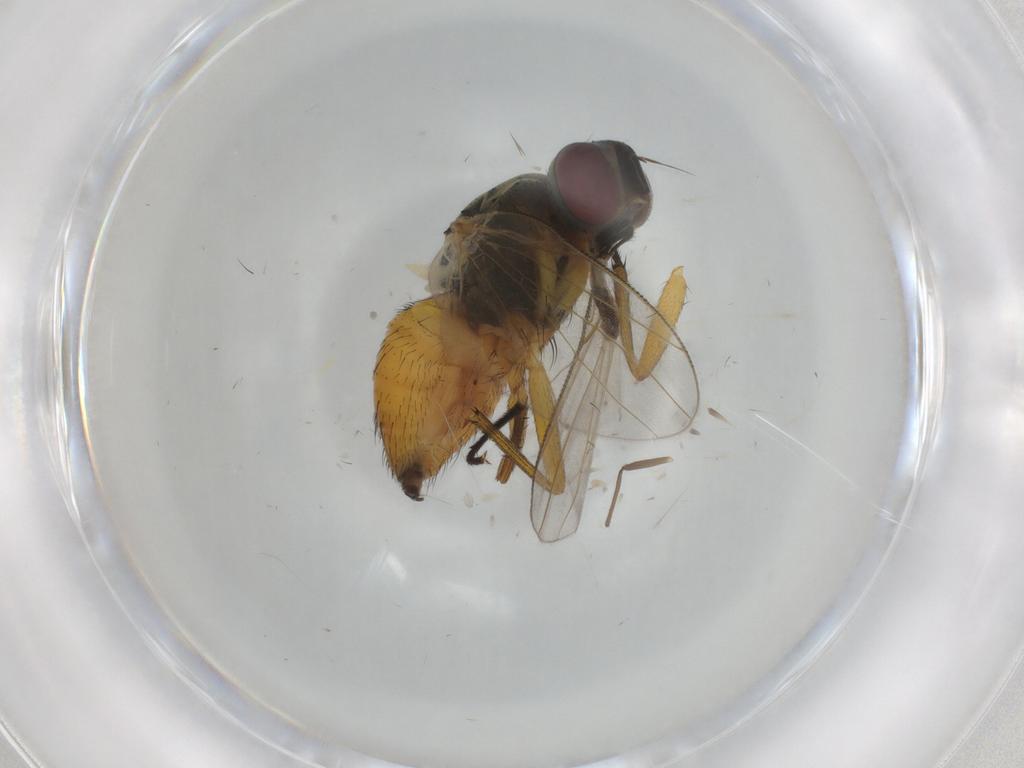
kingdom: Animalia
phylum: Arthropoda
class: Insecta
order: Diptera
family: Muscidae
